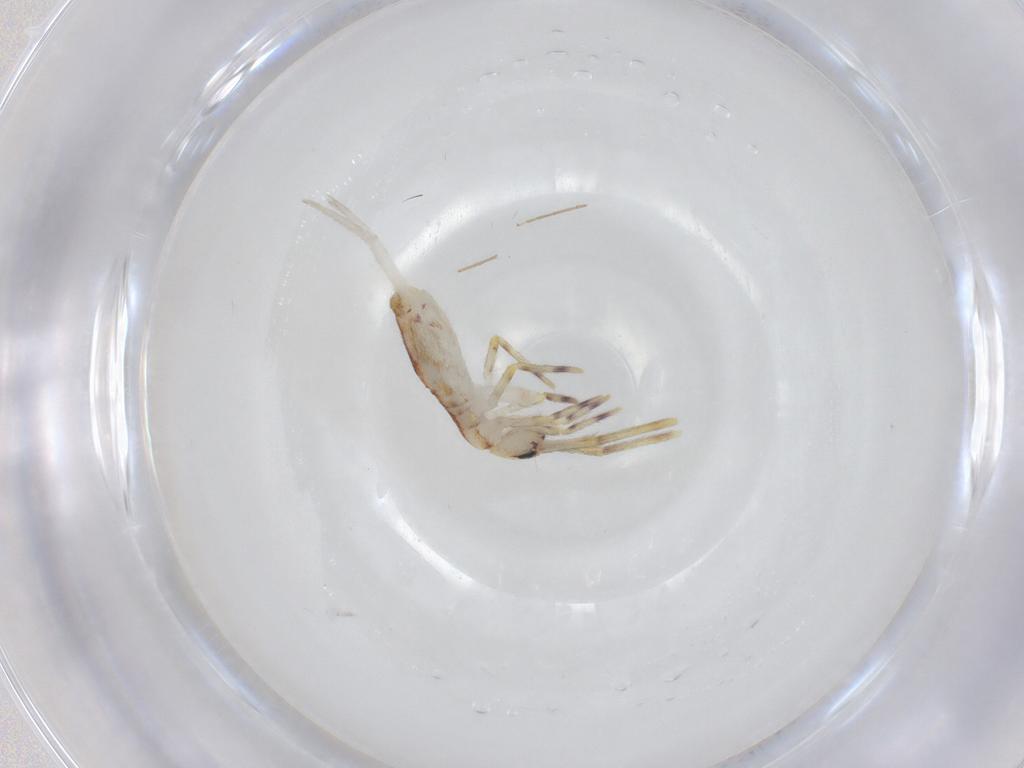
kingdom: Animalia
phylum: Arthropoda
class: Collembola
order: Entomobryomorpha
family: Entomobryidae
